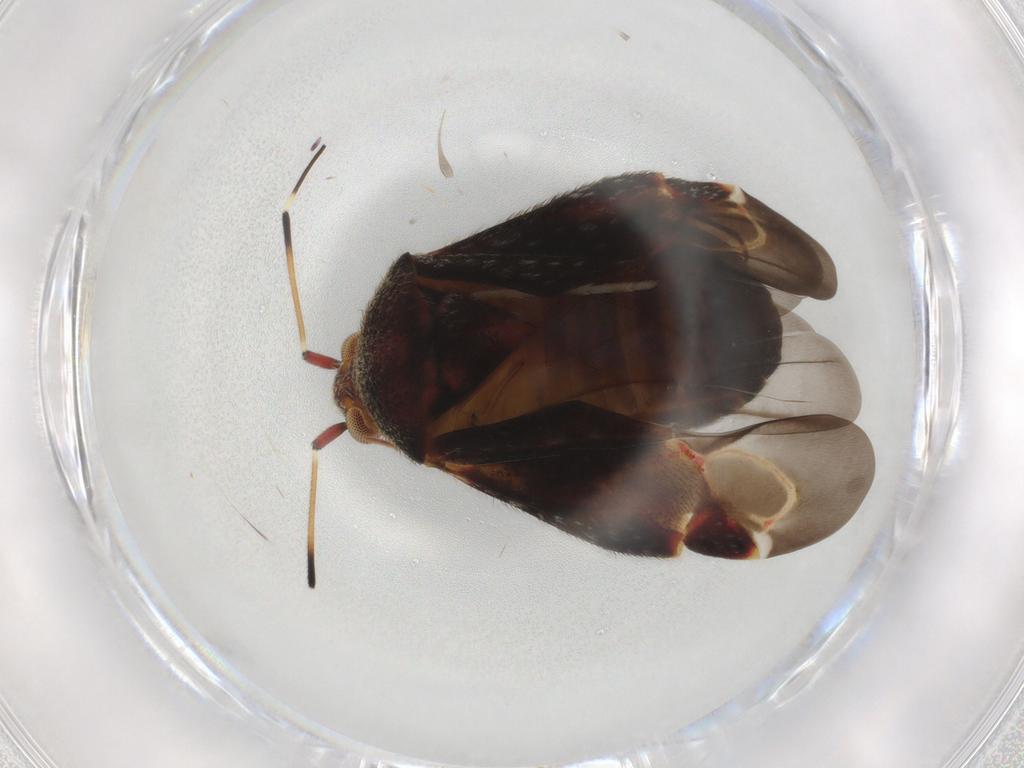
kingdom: Animalia
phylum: Arthropoda
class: Insecta
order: Hemiptera
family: Miridae
